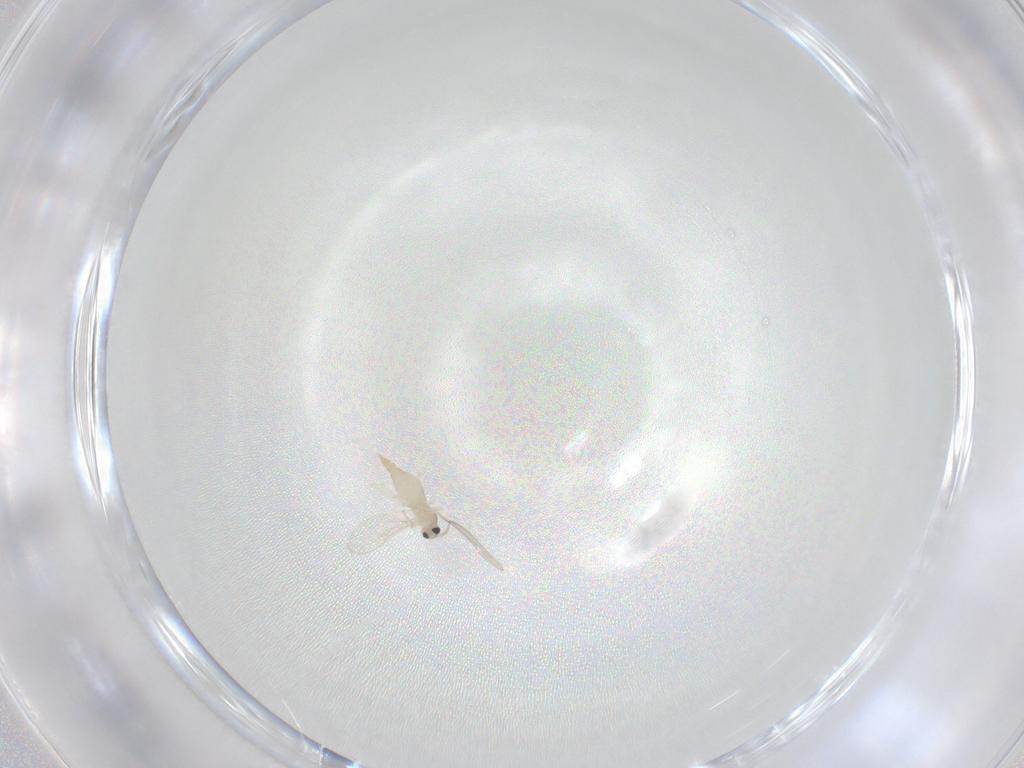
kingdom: Animalia
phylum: Arthropoda
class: Insecta
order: Diptera
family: Cecidomyiidae
